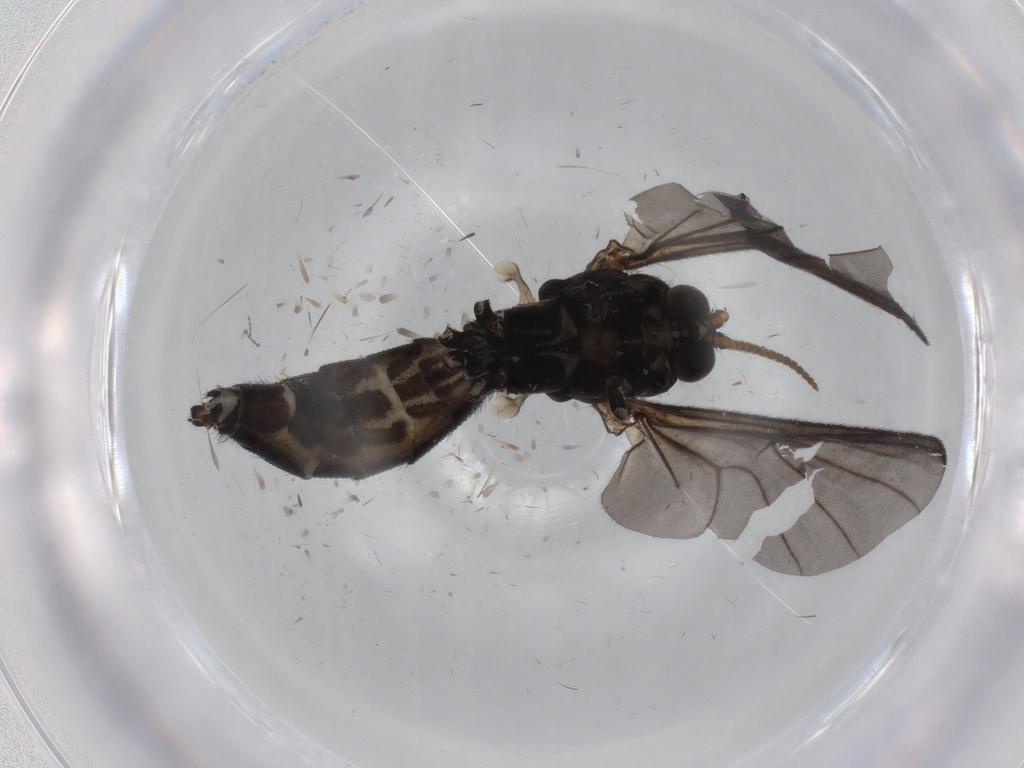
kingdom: Animalia
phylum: Arthropoda
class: Insecta
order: Diptera
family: Mycetophilidae
